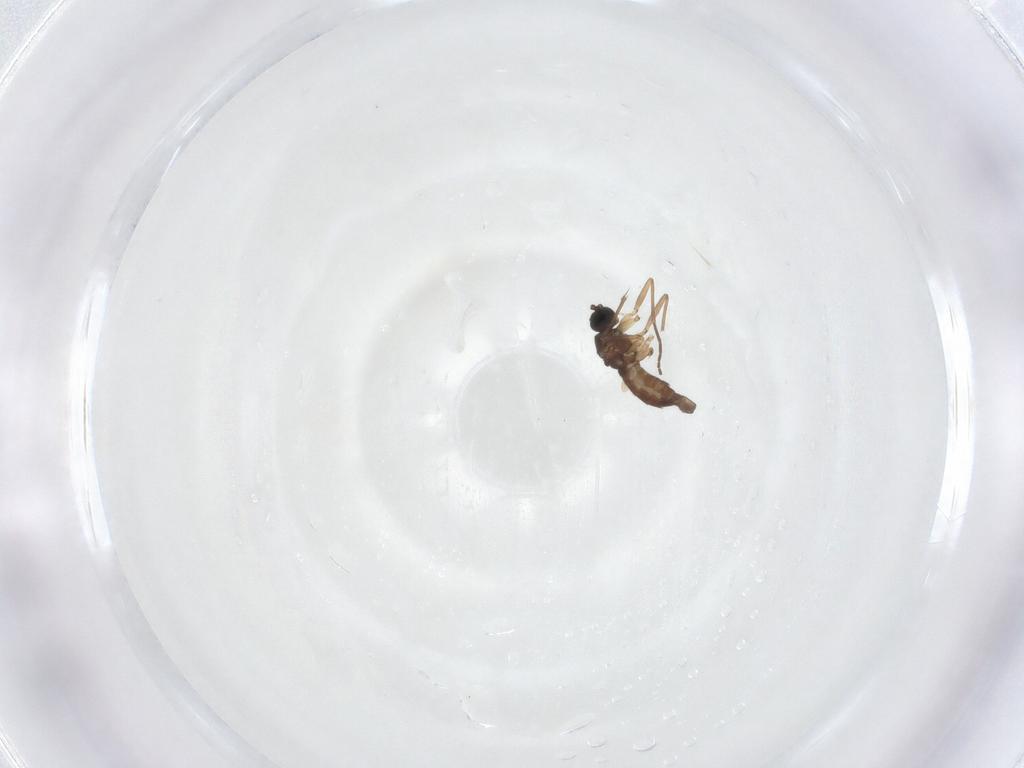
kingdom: Animalia
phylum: Arthropoda
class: Insecta
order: Diptera
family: Sciaridae
